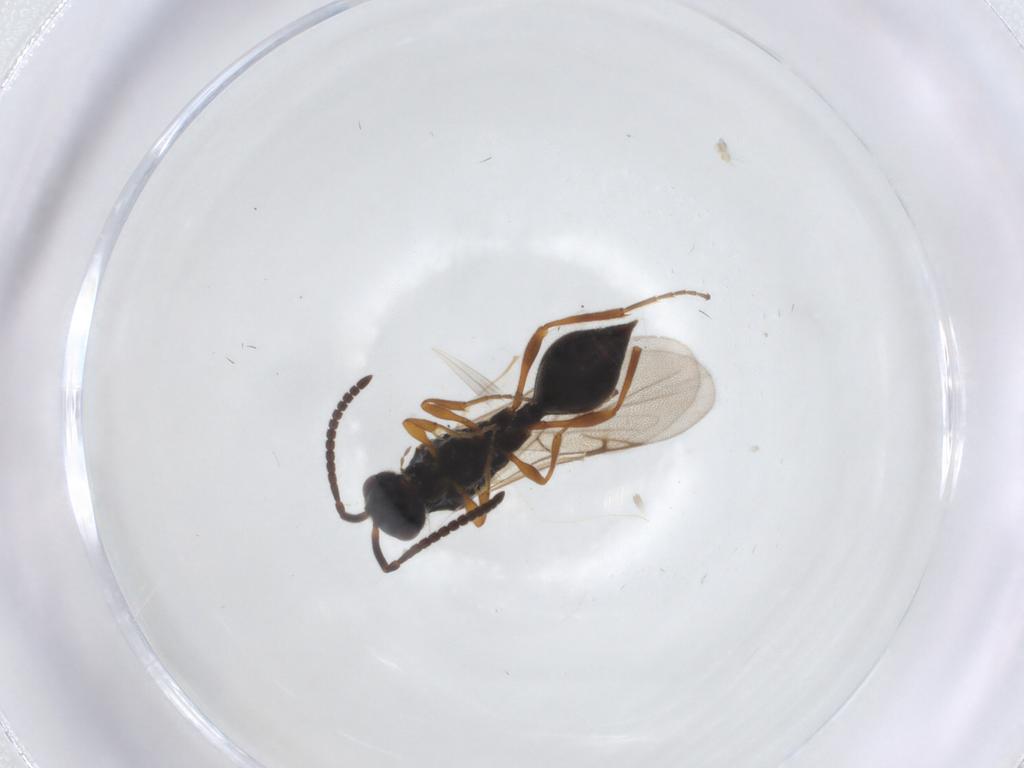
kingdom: Animalia
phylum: Arthropoda
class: Insecta
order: Hymenoptera
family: Diapriidae
